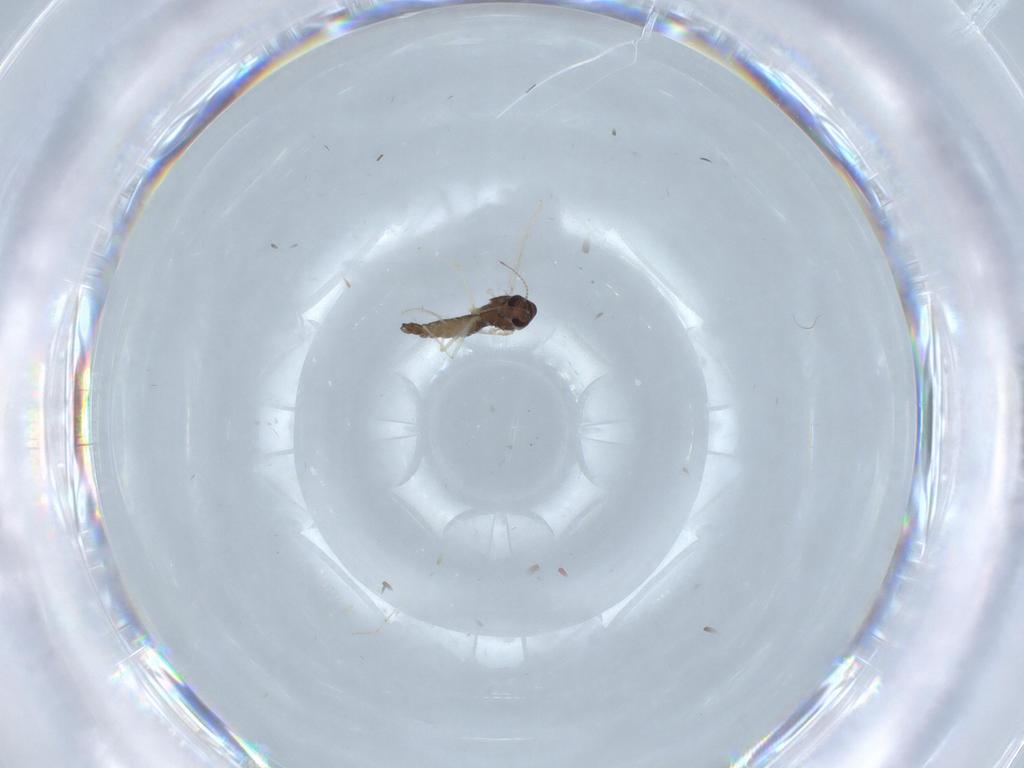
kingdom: Animalia
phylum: Arthropoda
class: Insecta
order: Diptera
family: Chironomidae
